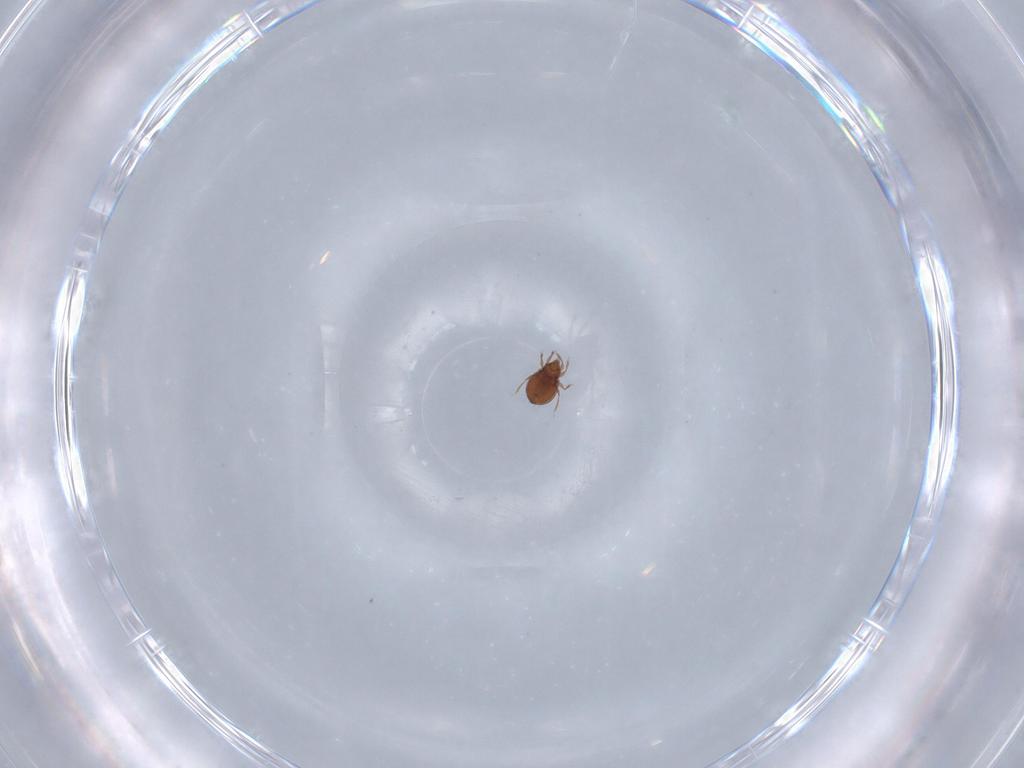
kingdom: Animalia
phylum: Arthropoda
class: Arachnida
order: Sarcoptiformes
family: Oribatulidae
